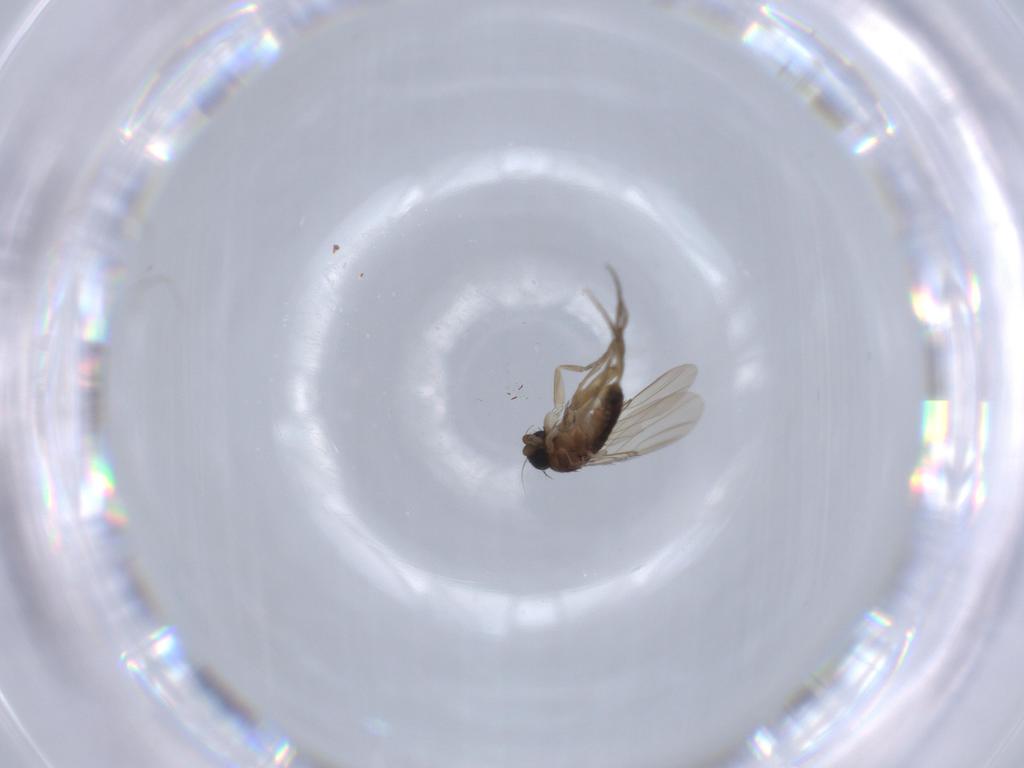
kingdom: Animalia
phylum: Arthropoda
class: Insecta
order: Diptera
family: Phoridae
